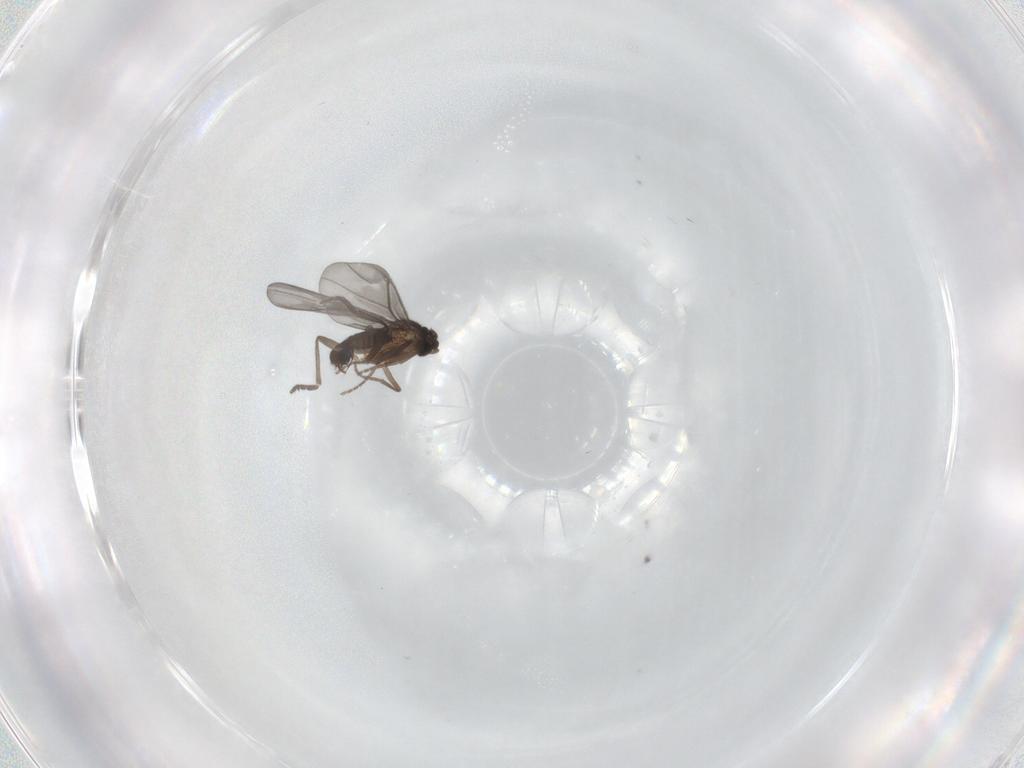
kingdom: Animalia
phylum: Arthropoda
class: Insecta
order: Diptera
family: Phoridae
